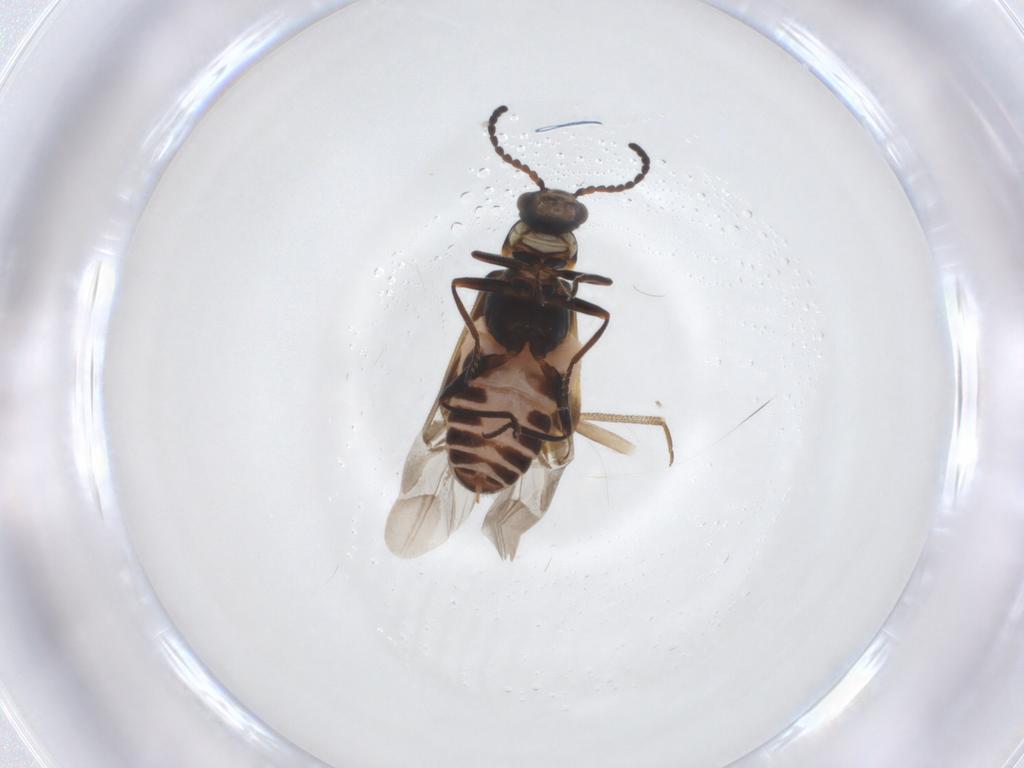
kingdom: Animalia
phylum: Arthropoda
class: Insecta
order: Coleoptera
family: Melyridae
